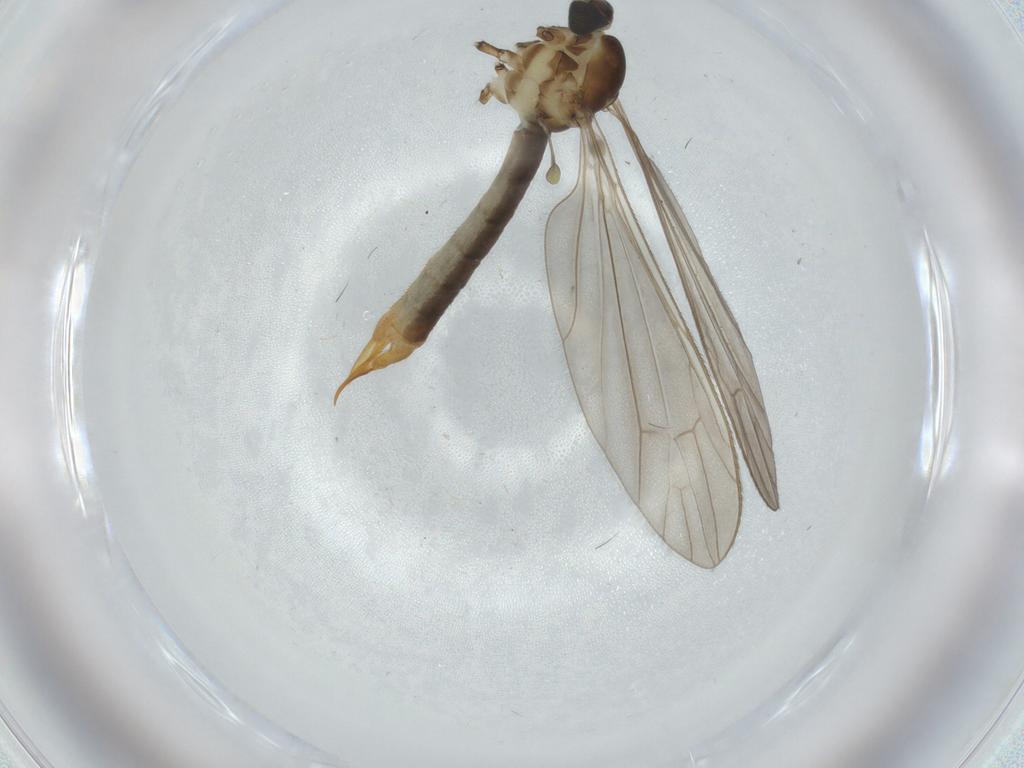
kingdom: Animalia
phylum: Arthropoda
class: Insecta
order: Diptera
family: Limoniidae
